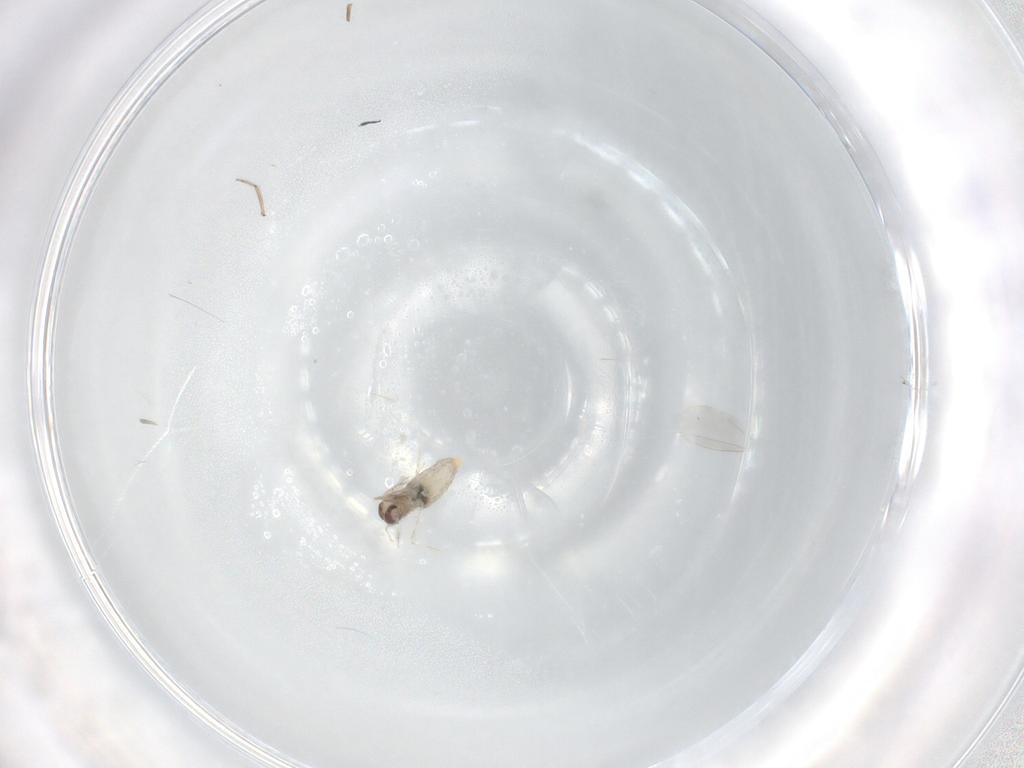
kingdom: Animalia
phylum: Arthropoda
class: Insecta
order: Diptera
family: Ceratopogonidae
